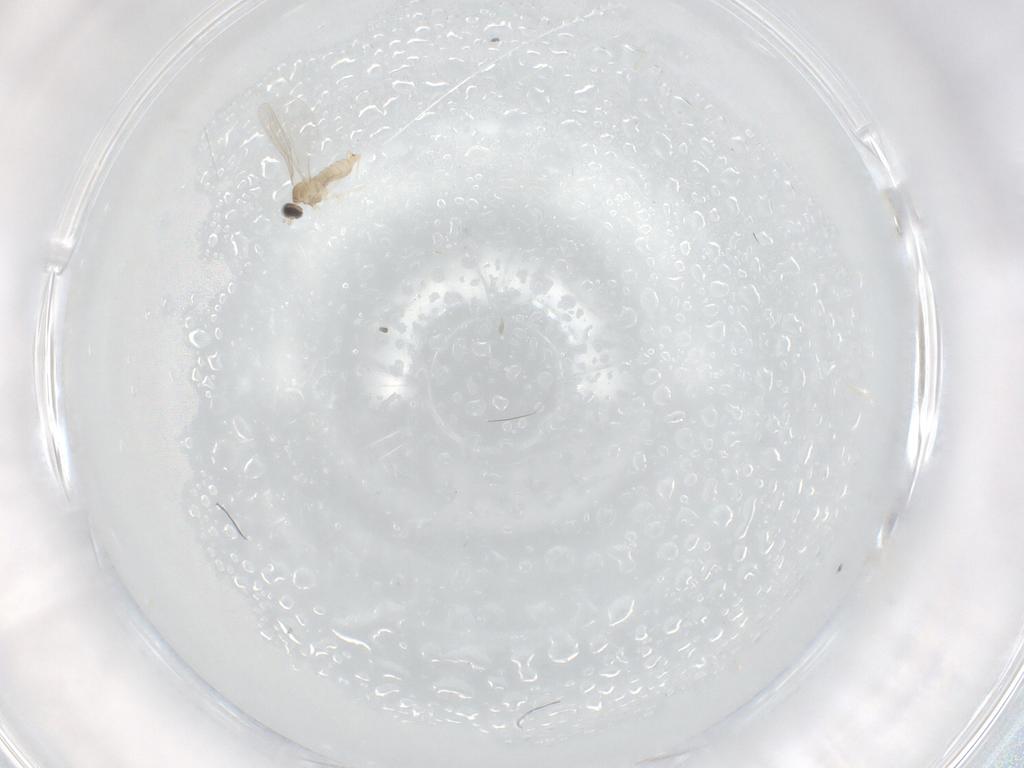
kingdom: Animalia
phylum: Arthropoda
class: Insecta
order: Diptera
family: Cecidomyiidae
